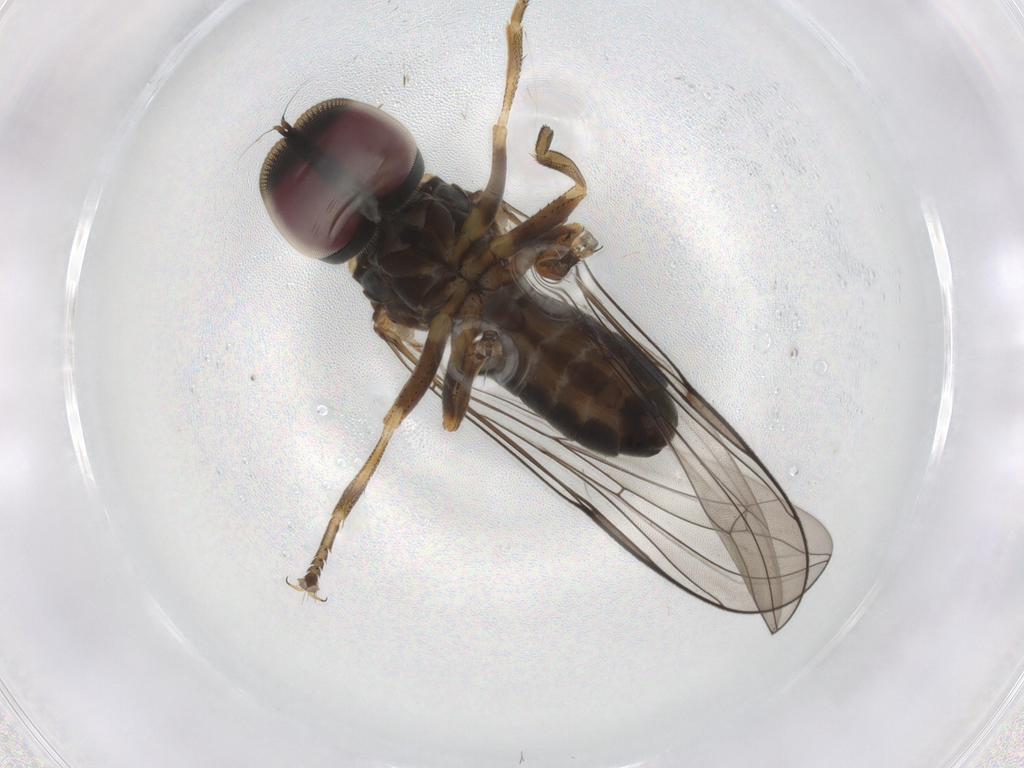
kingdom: Animalia
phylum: Arthropoda
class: Insecta
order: Diptera
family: Pipunculidae
